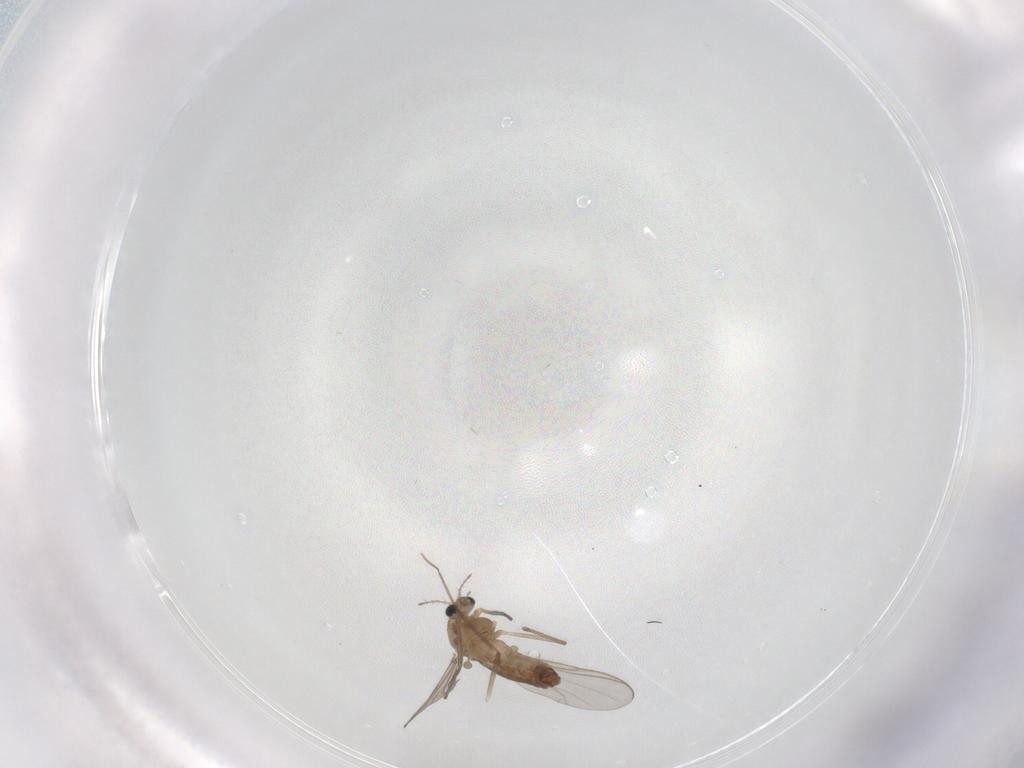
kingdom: Animalia
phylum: Arthropoda
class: Insecta
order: Diptera
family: Chironomidae
